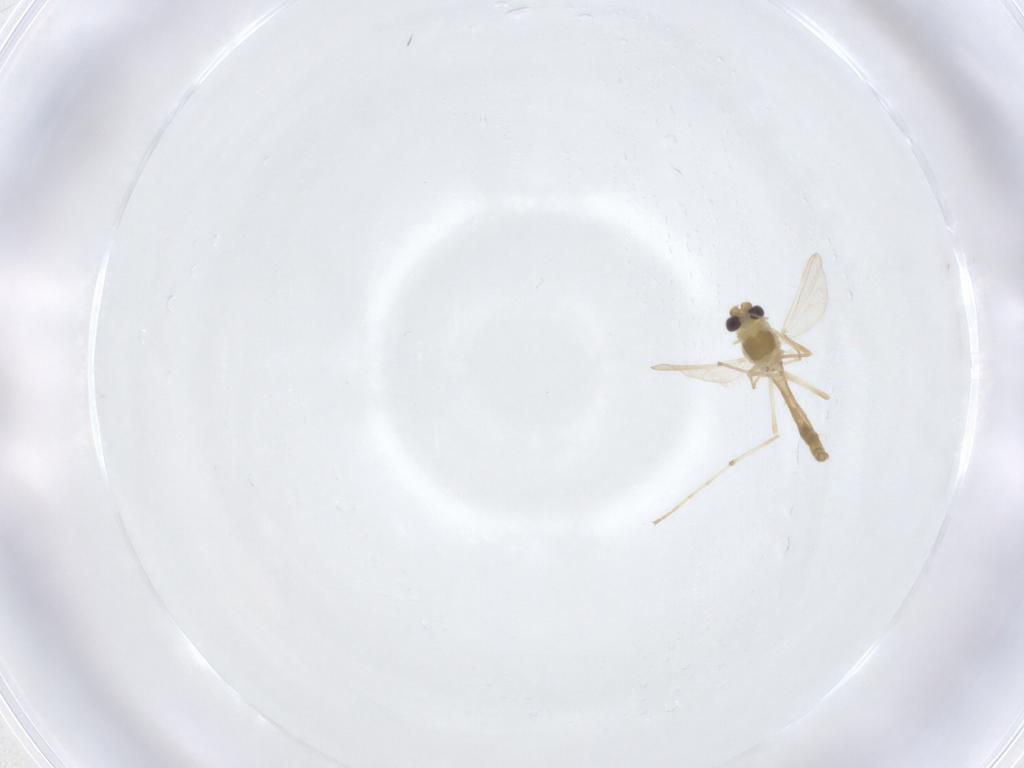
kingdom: Animalia
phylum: Arthropoda
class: Insecta
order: Diptera
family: Chironomidae
